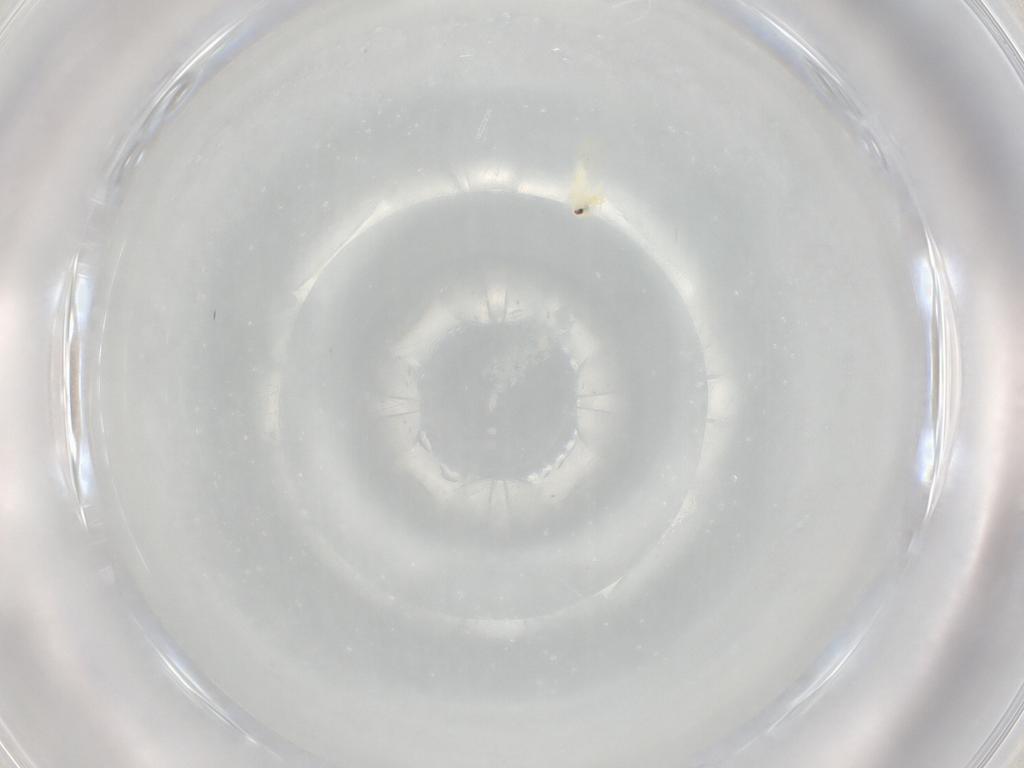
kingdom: Animalia
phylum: Arthropoda
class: Insecta
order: Hemiptera
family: Aleyrodidae
